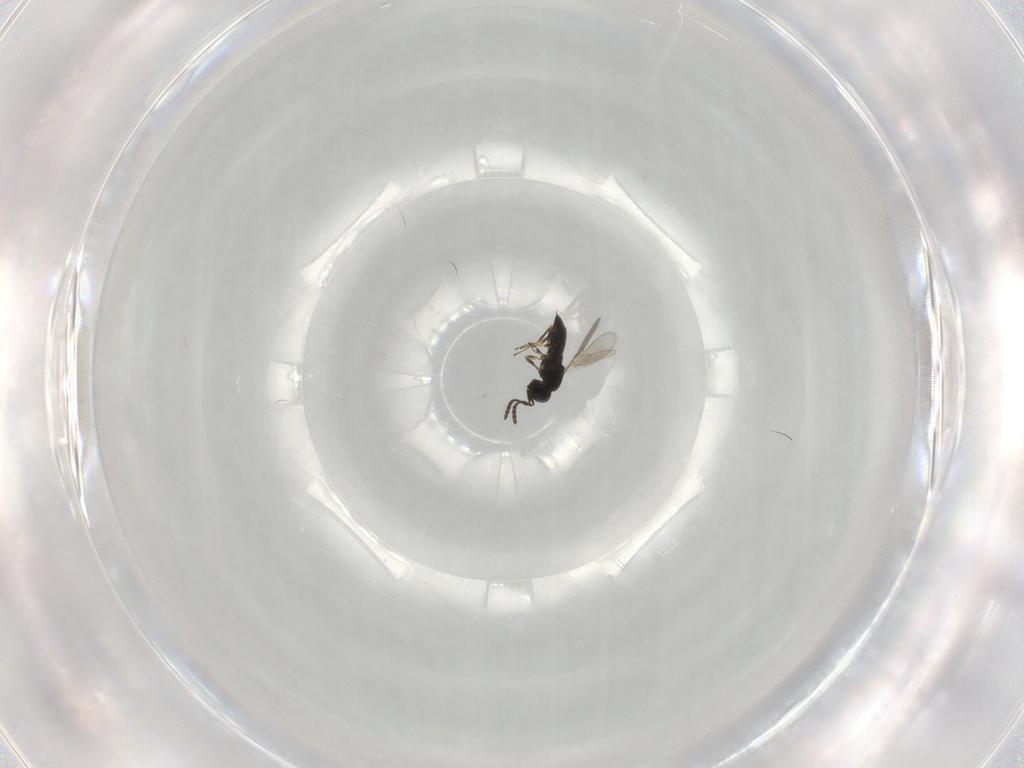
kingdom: Animalia
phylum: Arthropoda
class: Insecta
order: Hymenoptera
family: Scelionidae
